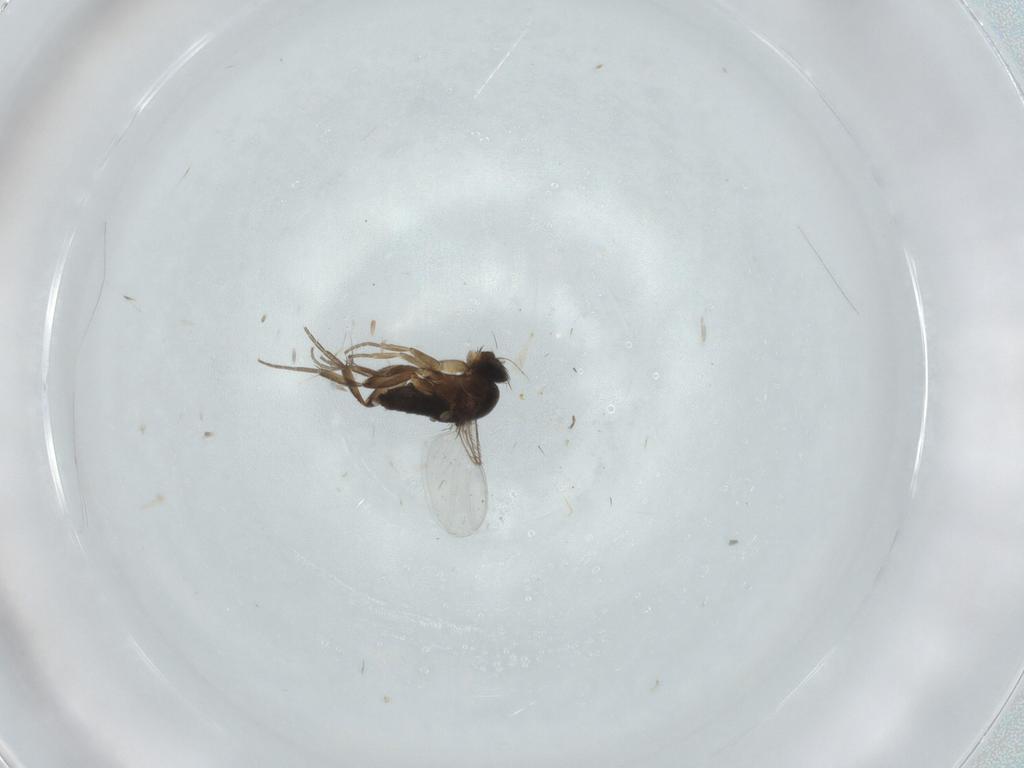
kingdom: Animalia
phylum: Arthropoda
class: Insecta
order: Diptera
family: Phoridae
